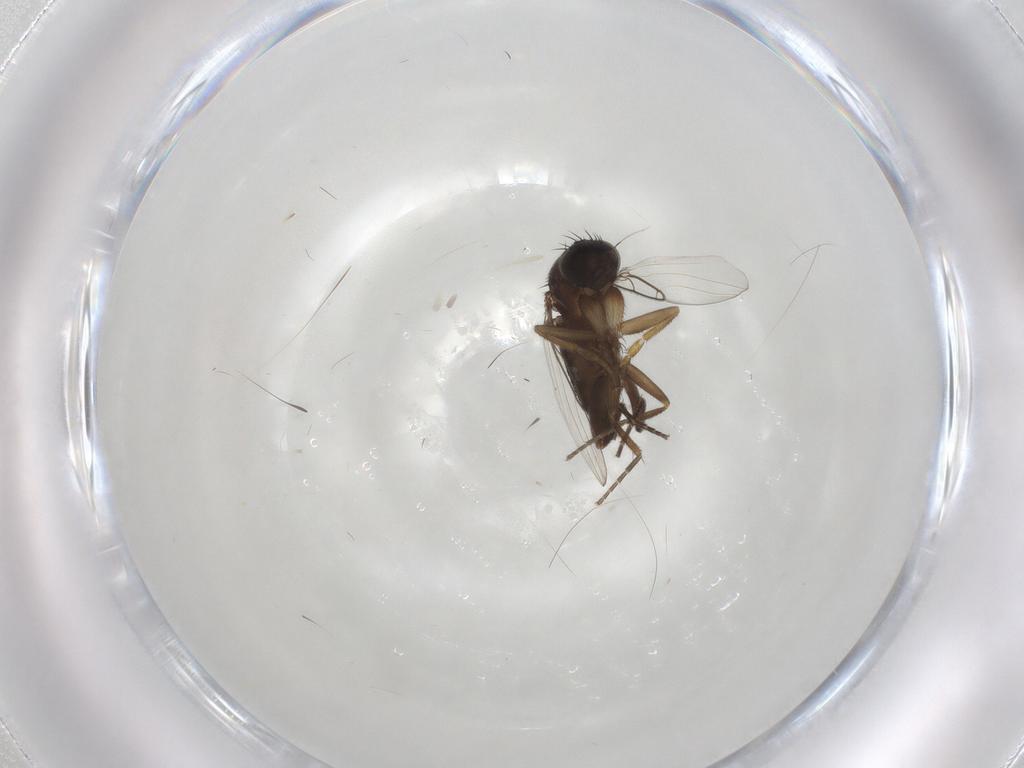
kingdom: Animalia
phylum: Arthropoda
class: Insecta
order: Diptera
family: Phoridae
